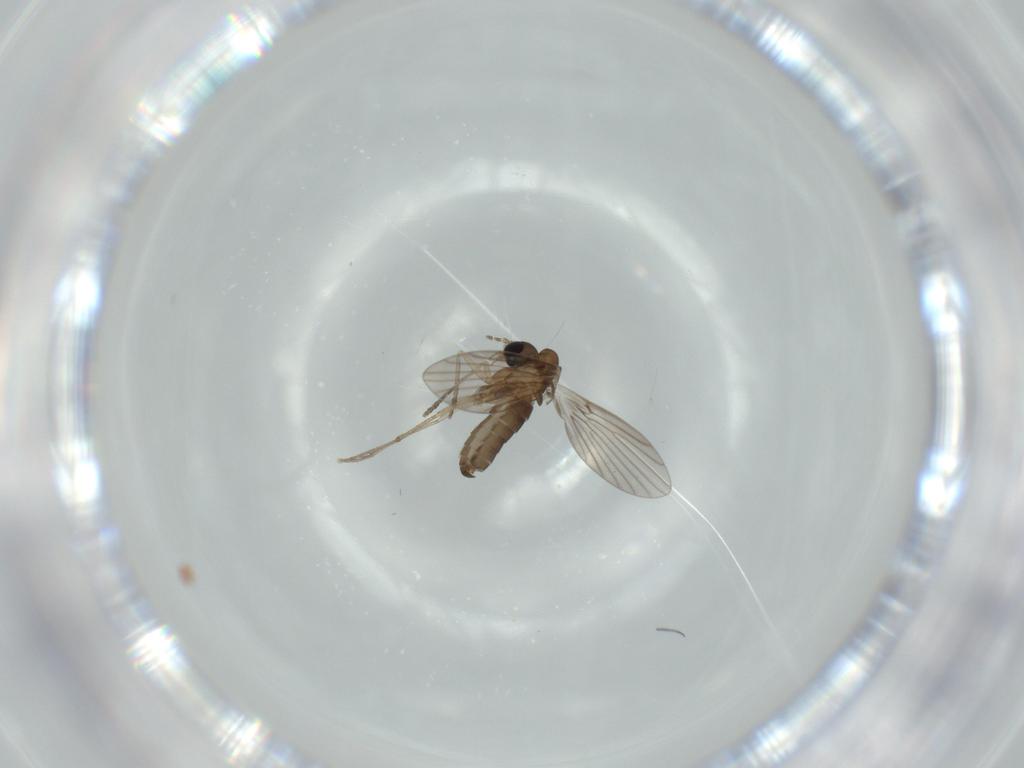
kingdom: Animalia
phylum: Arthropoda
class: Insecta
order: Diptera
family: Psychodidae
